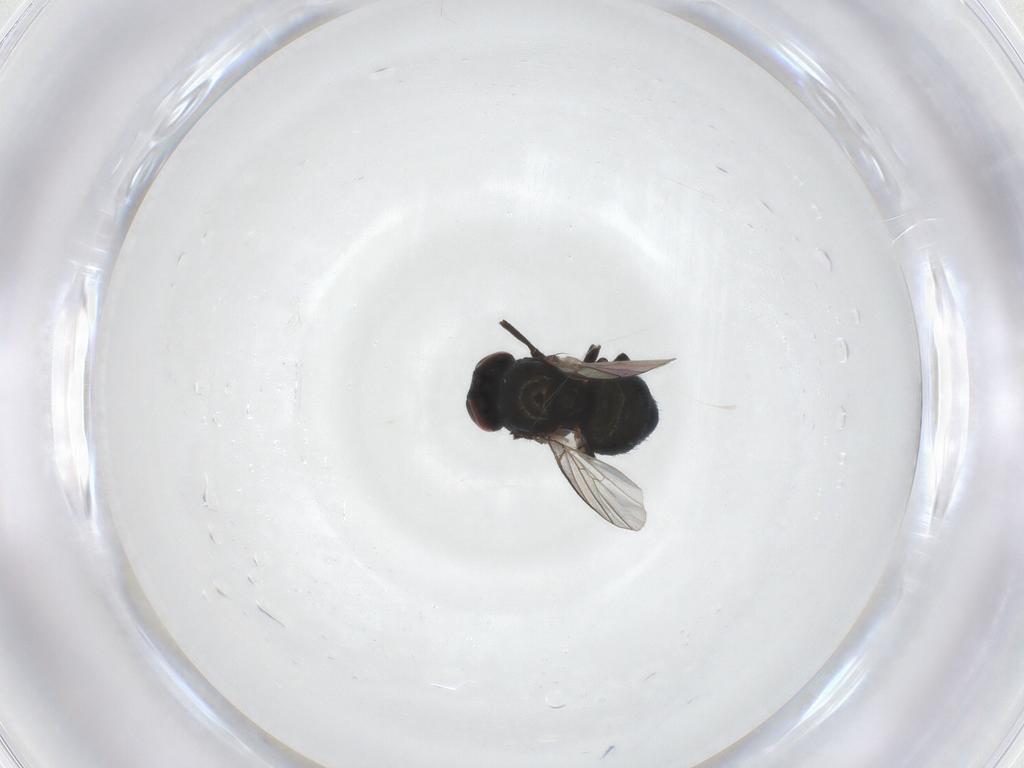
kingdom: Animalia
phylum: Arthropoda
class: Insecta
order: Diptera
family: Agromyzidae
